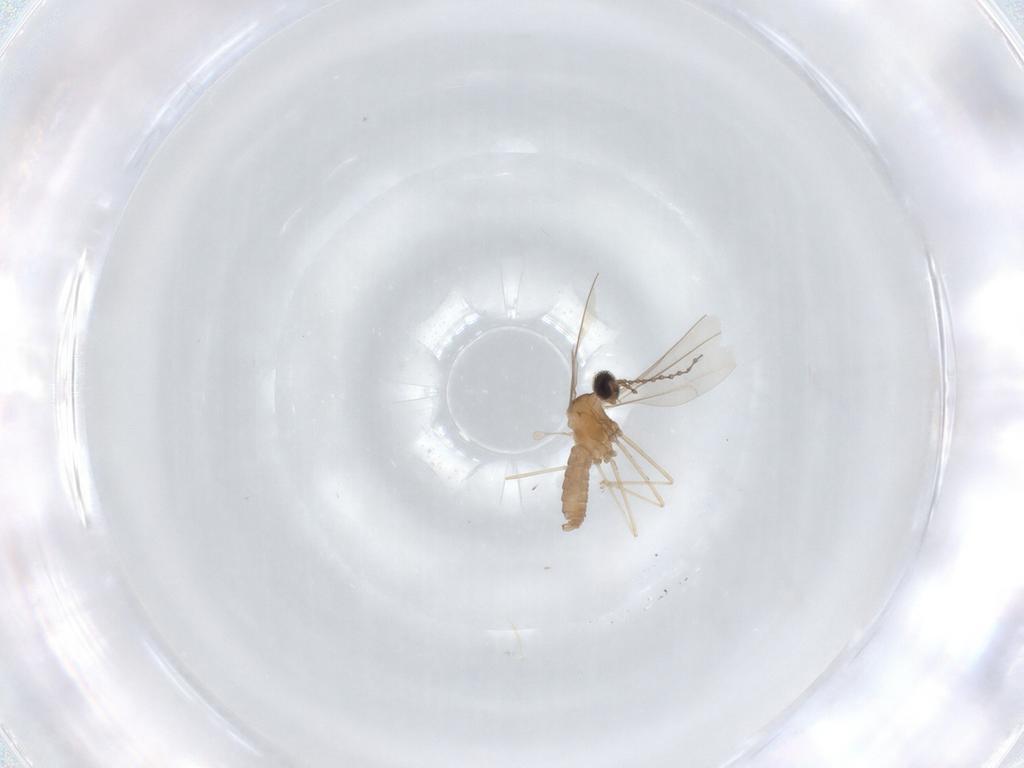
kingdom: Animalia
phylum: Arthropoda
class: Insecta
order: Diptera
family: Cecidomyiidae
